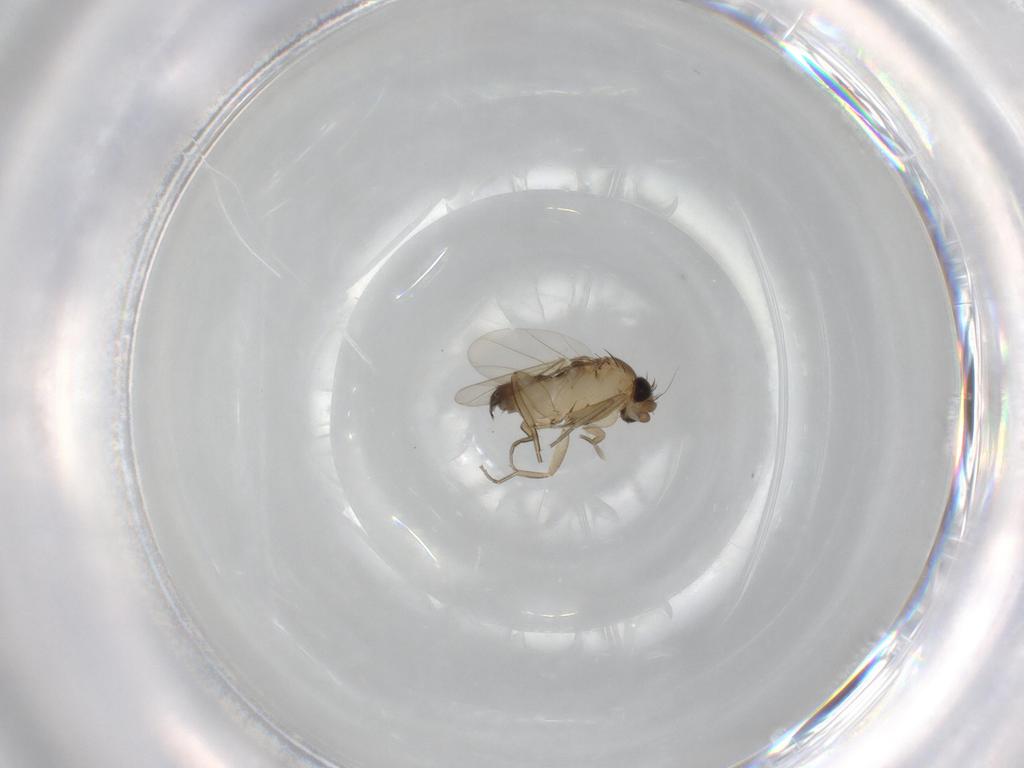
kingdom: Animalia
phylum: Arthropoda
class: Insecta
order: Diptera
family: Phoridae
